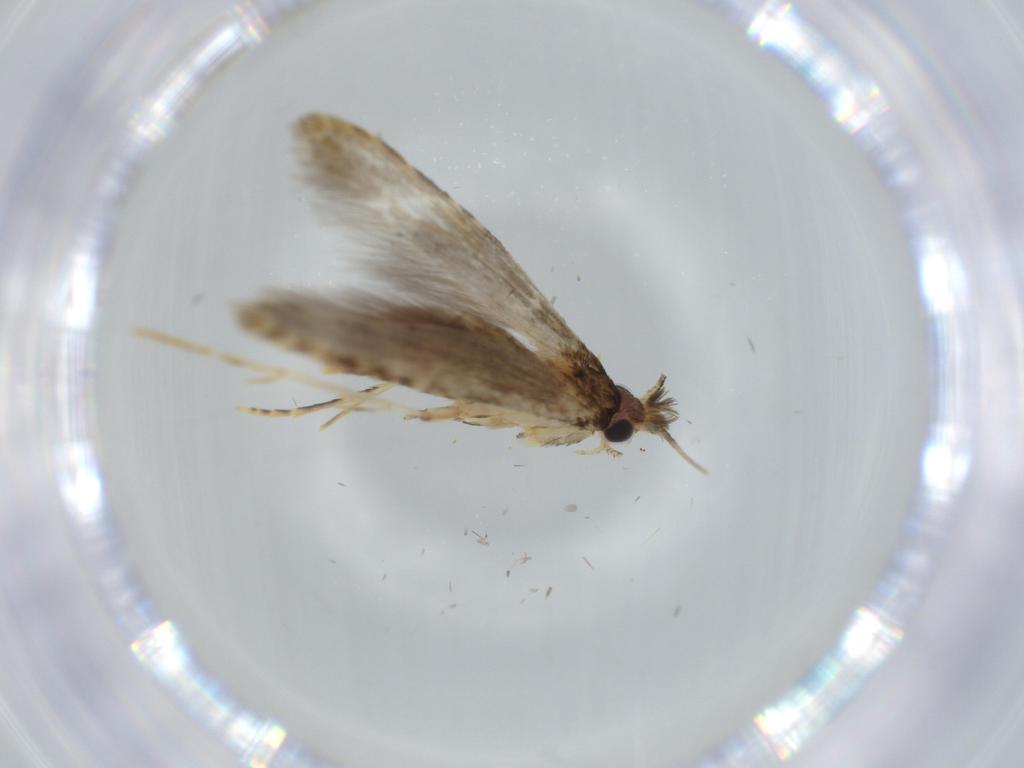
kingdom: Animalia
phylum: Arthropoda
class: Insecta
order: Lepidoptera
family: Tineidae
